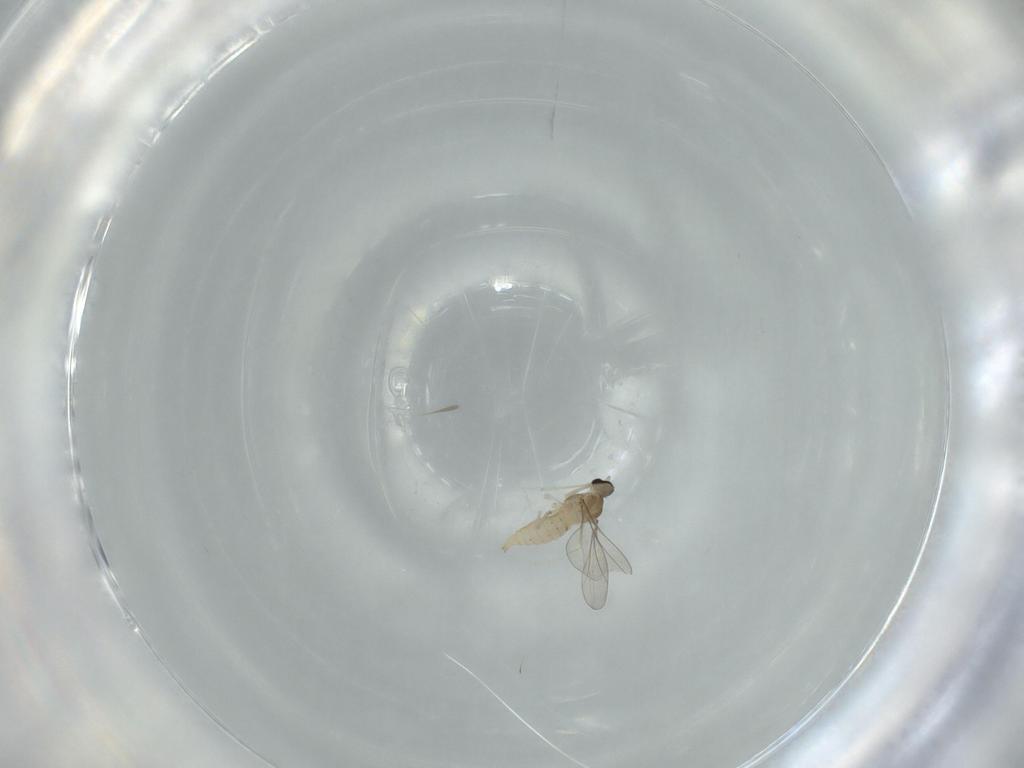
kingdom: Animalia
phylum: Arthropoda
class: Insecta
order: Diptera
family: Cecidomyiidae
